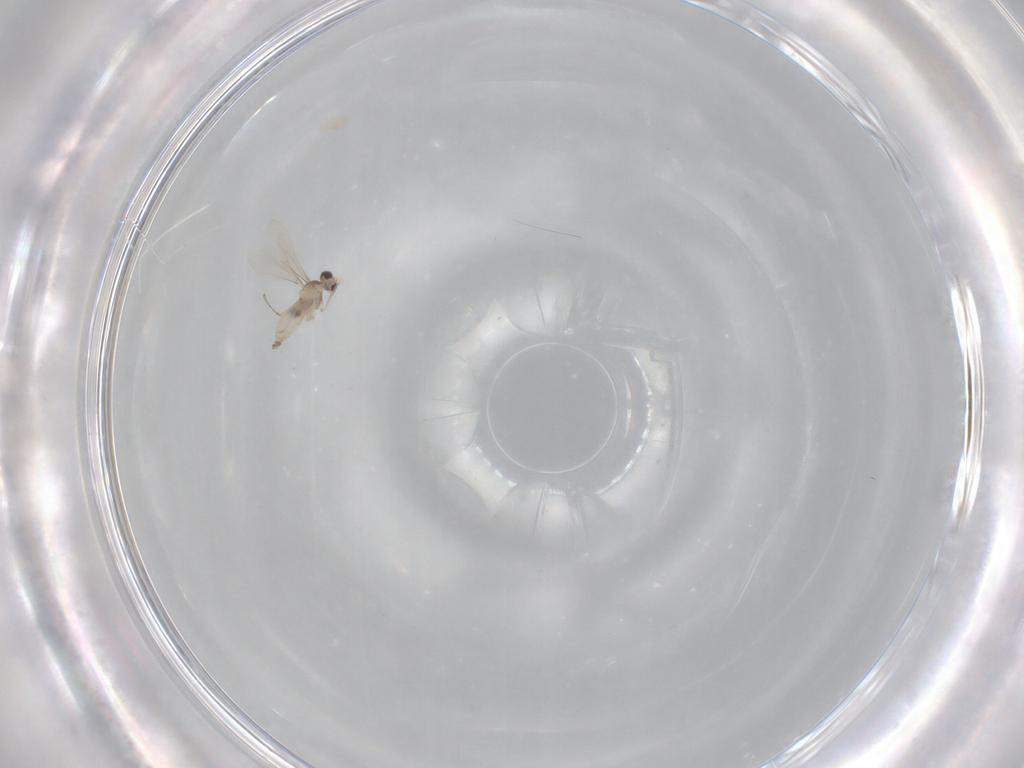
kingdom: Animalia
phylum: Arthropoda
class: Insecta
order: Diptera
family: Cecidomyiidae
